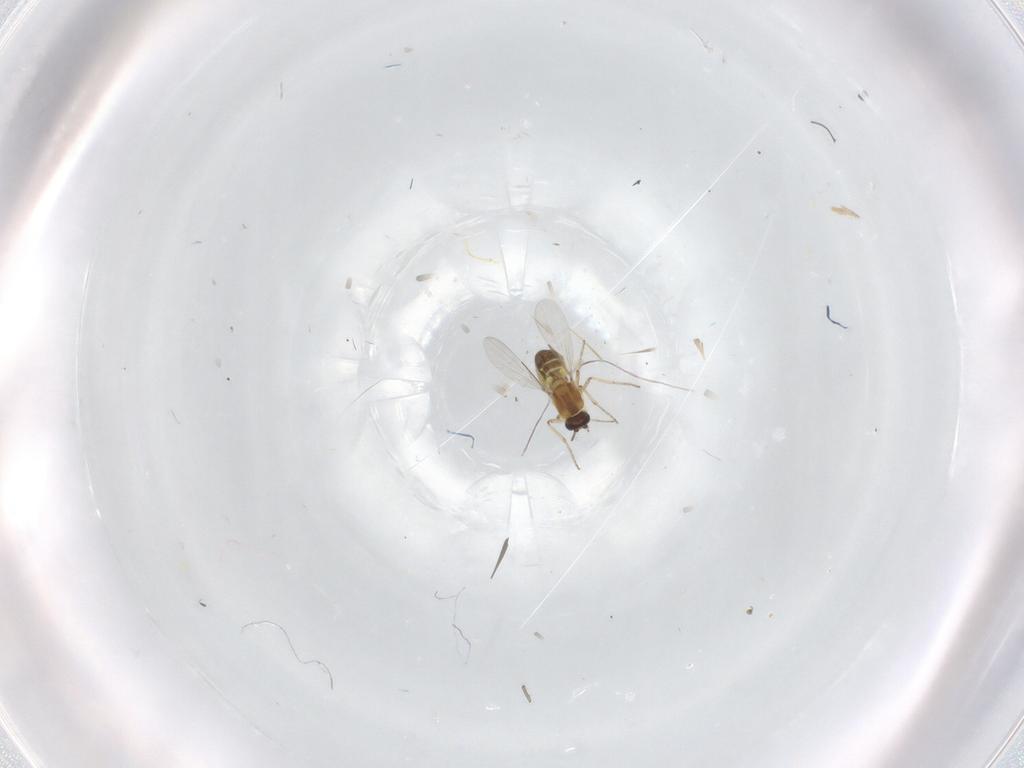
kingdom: Animalia
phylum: Arthropoda
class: Insecta
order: Diptera
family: Ceratopogonidae
